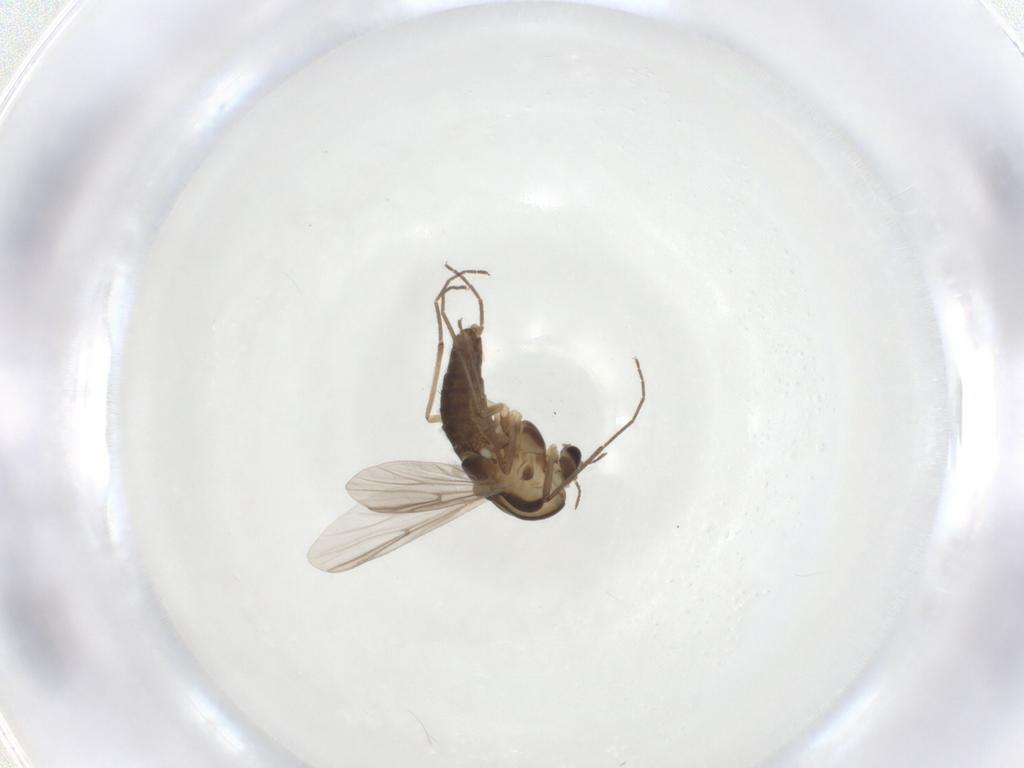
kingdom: Animalia
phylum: Arthropoda
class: Insecta
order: Diptera
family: Chironomidae
